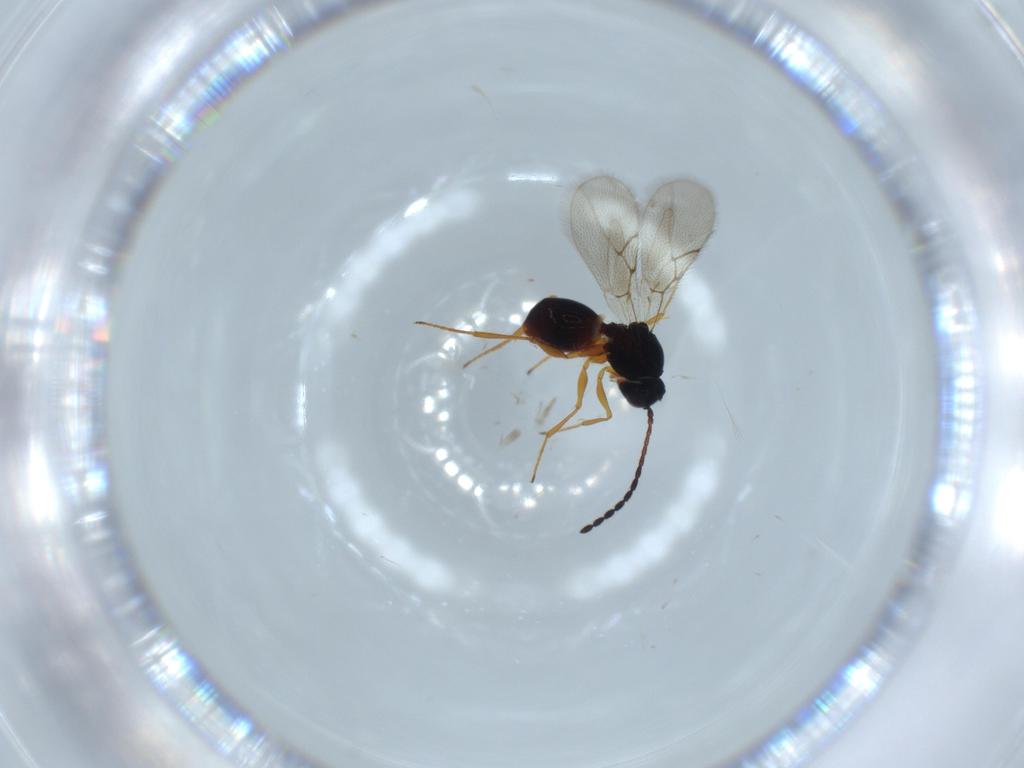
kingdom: Animalia
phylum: Arthropoda
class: Insecta
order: Hymenoptera
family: Figitidae
